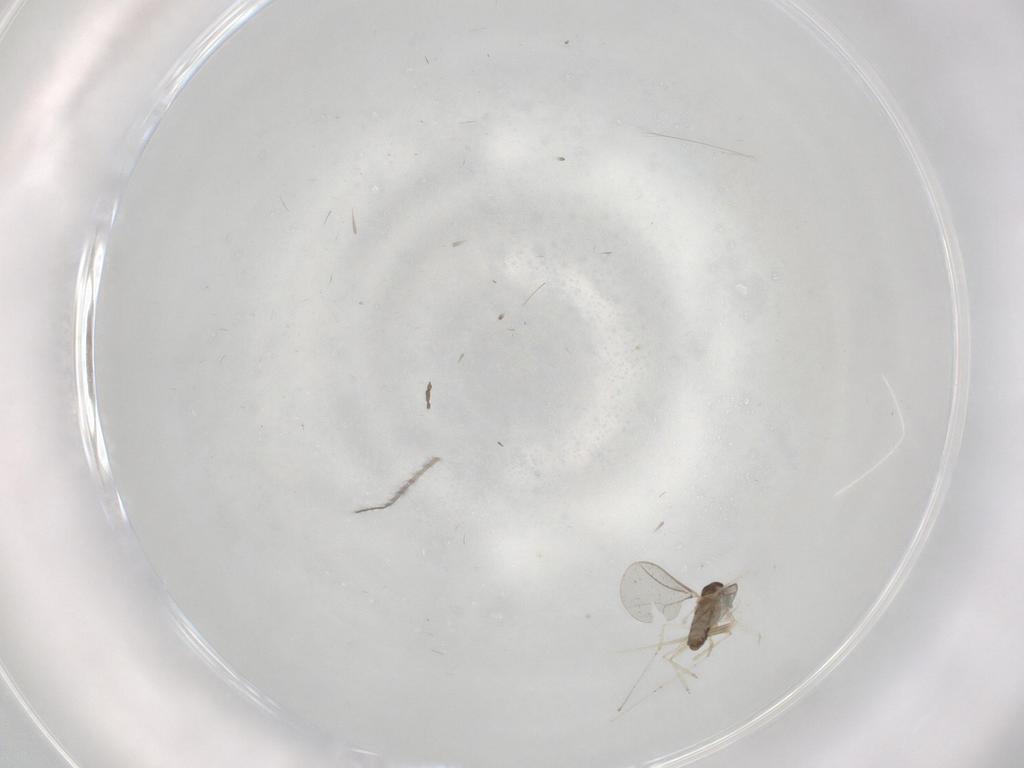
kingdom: Animalia
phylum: Arthropoda
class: Insecta
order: Diptera
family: Cecidomyiidae
